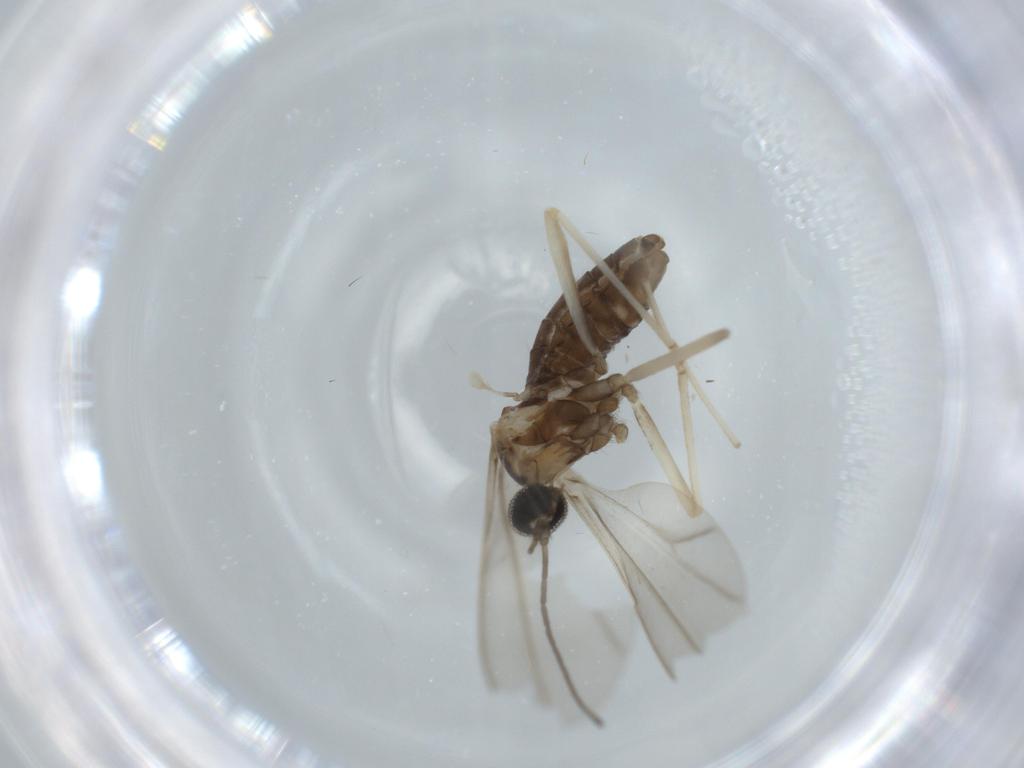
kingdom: Animalia
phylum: Arthropoda
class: Insecta
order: Diptera
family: Cecidomyiidae
